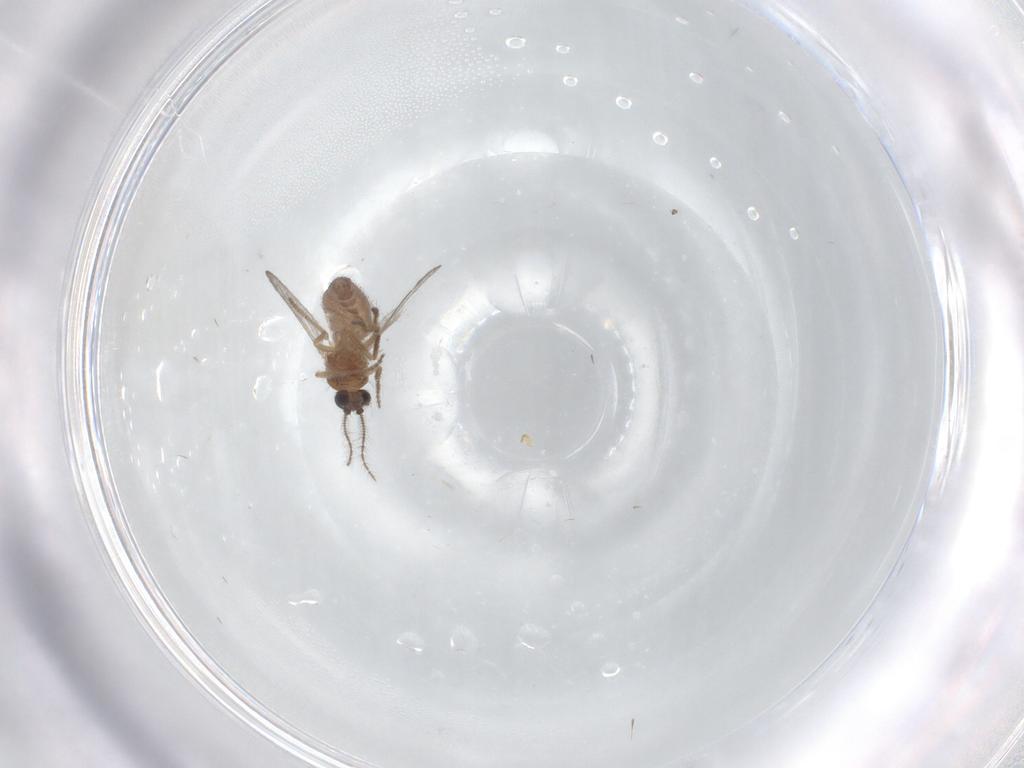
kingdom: Animalia
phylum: Arthropoda
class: Insecta
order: Diptera
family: Ceratopogonidae
